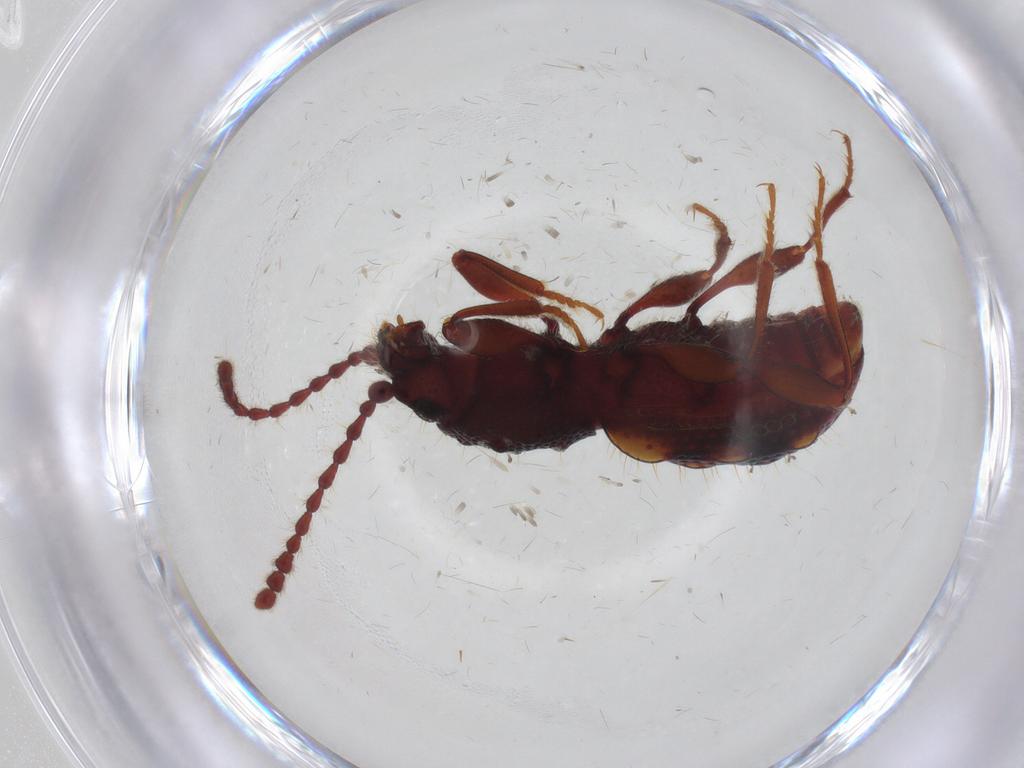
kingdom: Animalia
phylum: Arthropoda
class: Insecta
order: Coleoptera
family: Ptinidae
